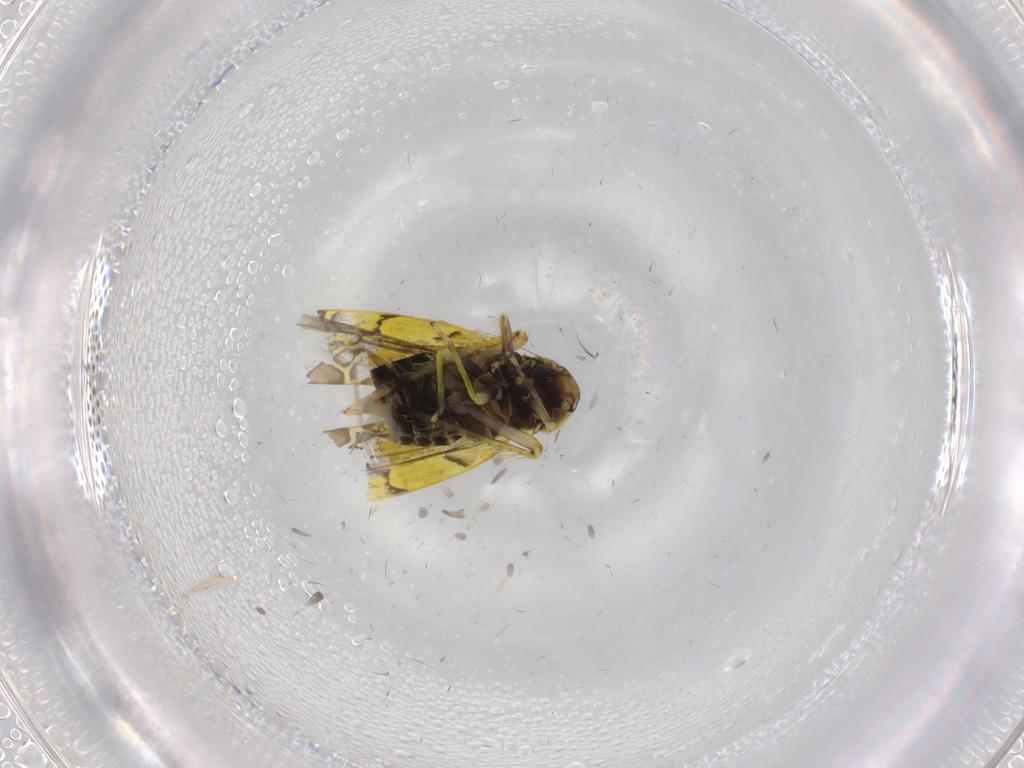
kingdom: Animalia
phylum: Arthropoda
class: Insecta
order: Hemiptera
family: Cicadellidae
